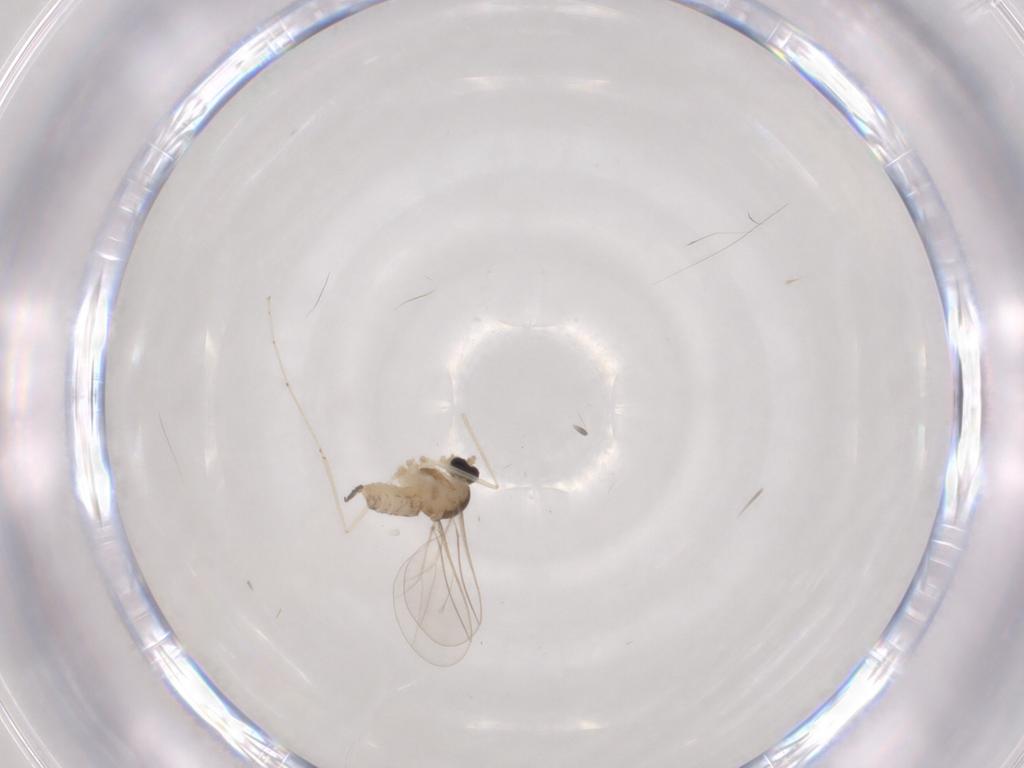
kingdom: Animalia
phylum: Arthropoda
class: Insecta
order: Diptera
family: Cecidomyiidae
